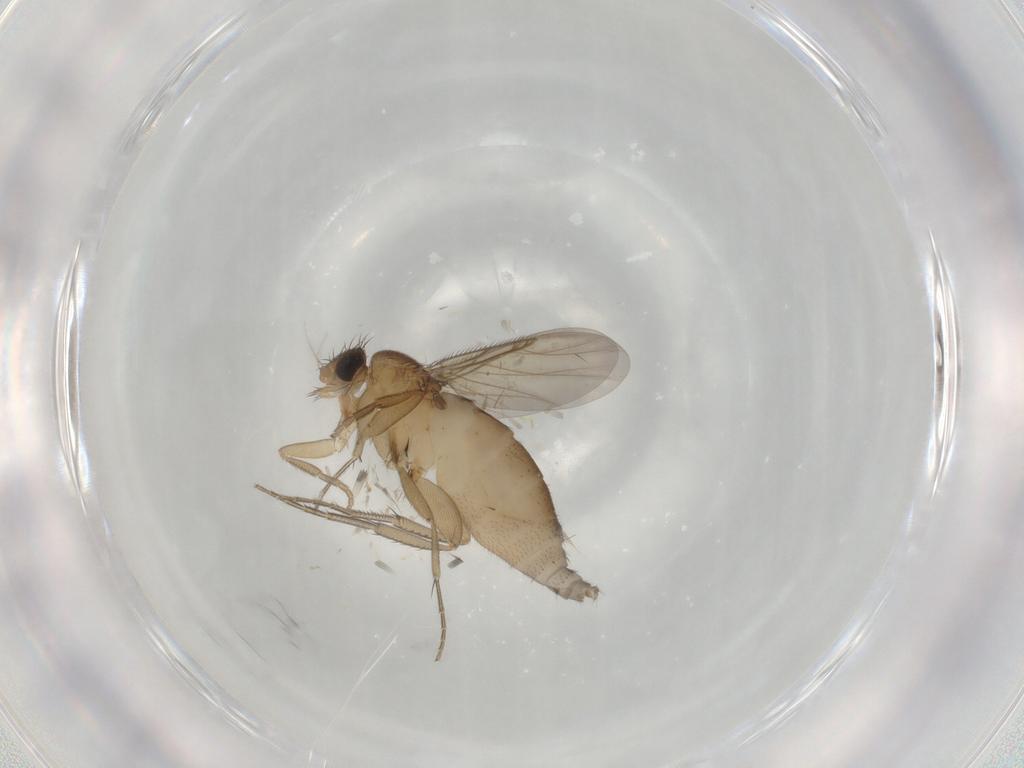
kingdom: Animalia
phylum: Arthropoda
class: Insecta
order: Diptera
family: Phoridae
